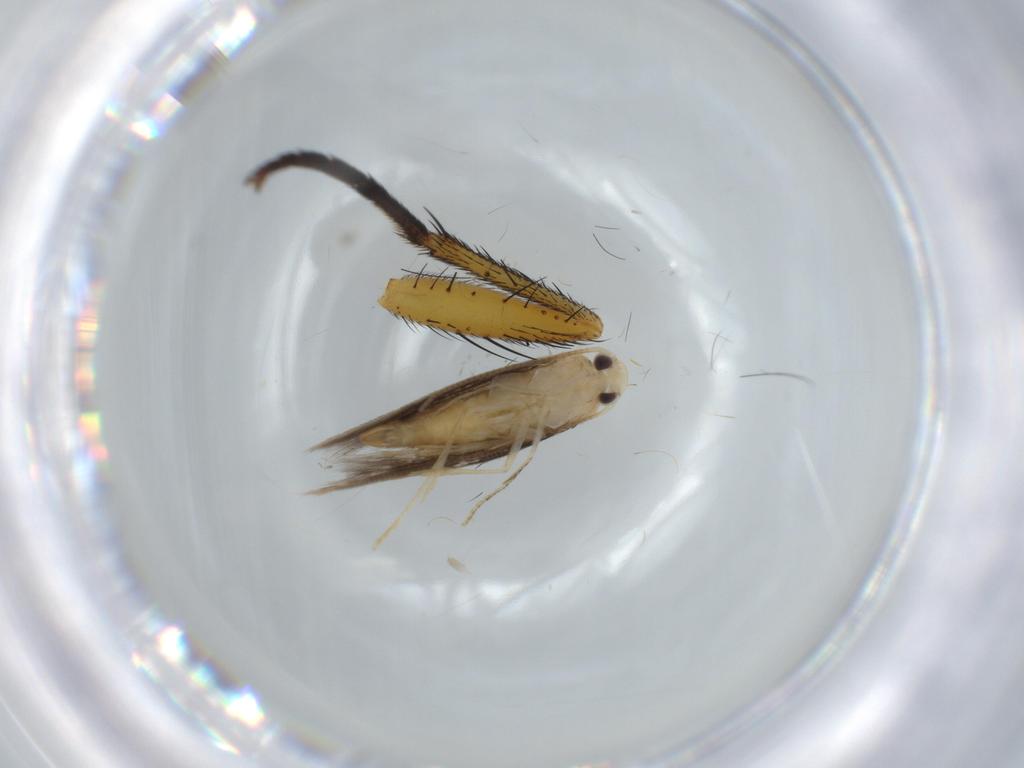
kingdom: Animalia
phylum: Arthropoda
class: Insecta
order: Lepidoptera
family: Gracillariidae
